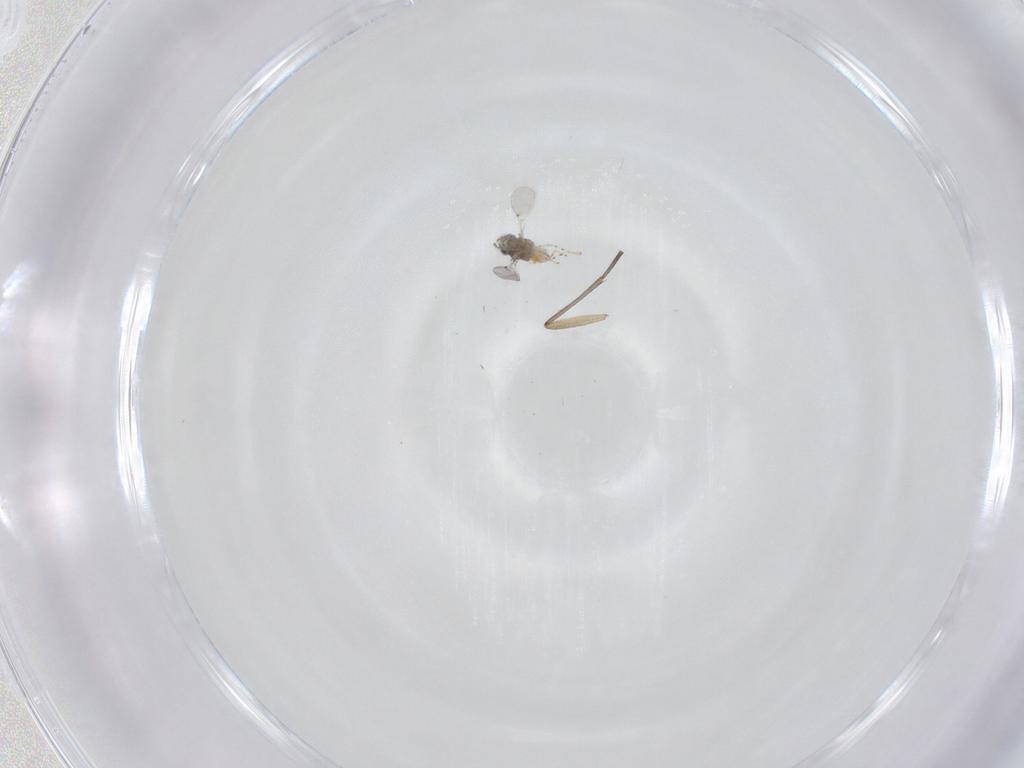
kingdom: Animalia
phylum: Arthropoda
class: Insecta
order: Diptera
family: Sciaridae
